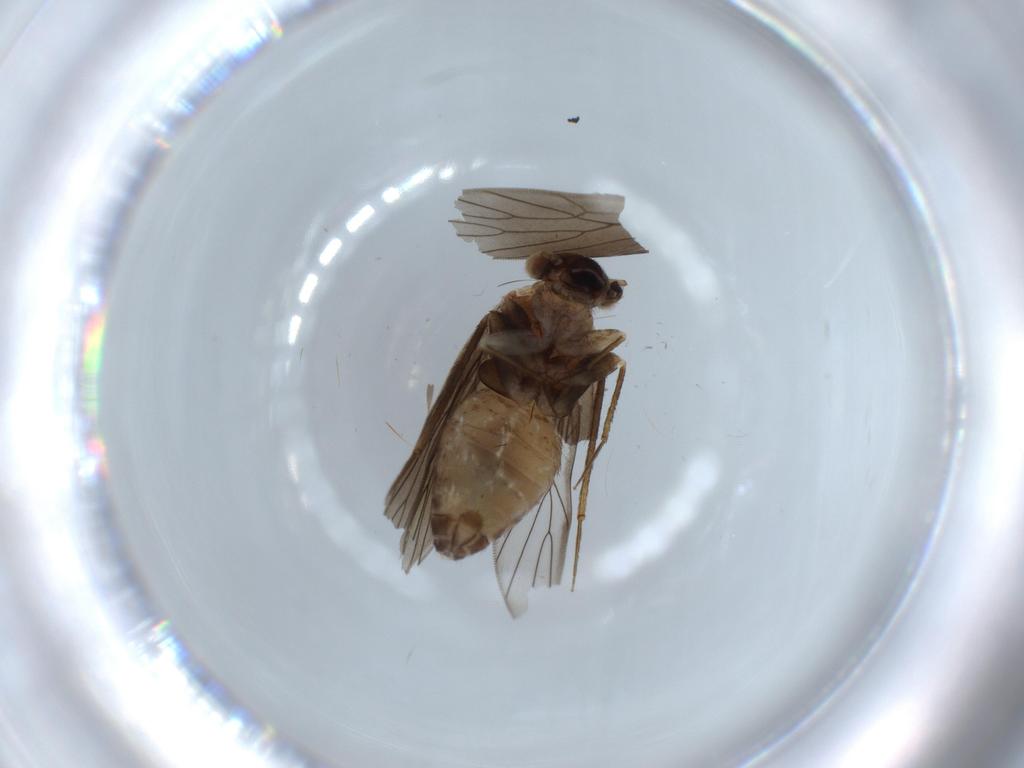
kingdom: Animalia
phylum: Arthropoda
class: Insecta
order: Psocodea
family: Lepidopsocidae
